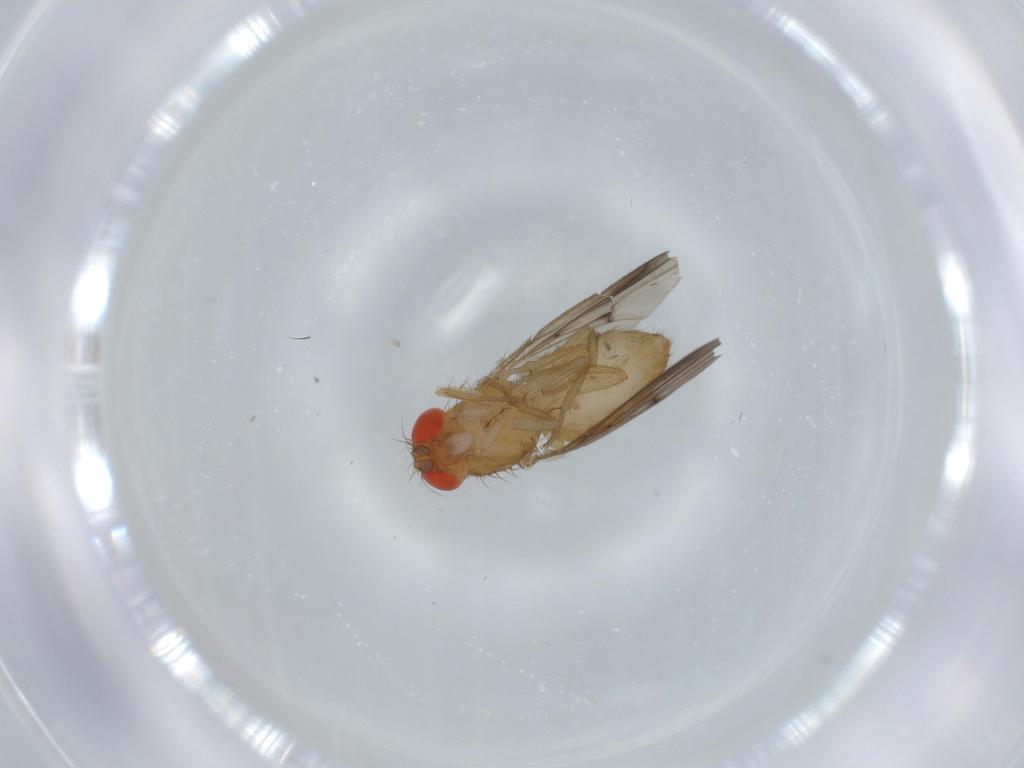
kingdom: Animalia
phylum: Arthropoda
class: Insecta
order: Diptera
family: Drosophilidae
